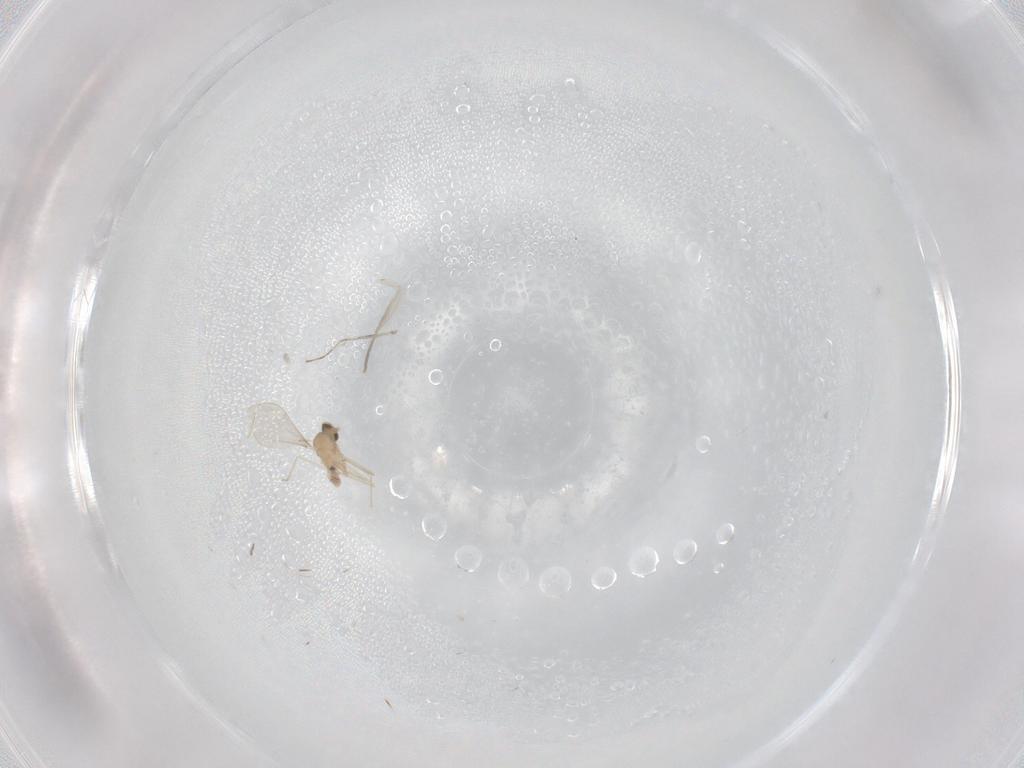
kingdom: Animalia
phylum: Arthropoda
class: Insecta
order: Diptera
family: Cecidomyiidae
